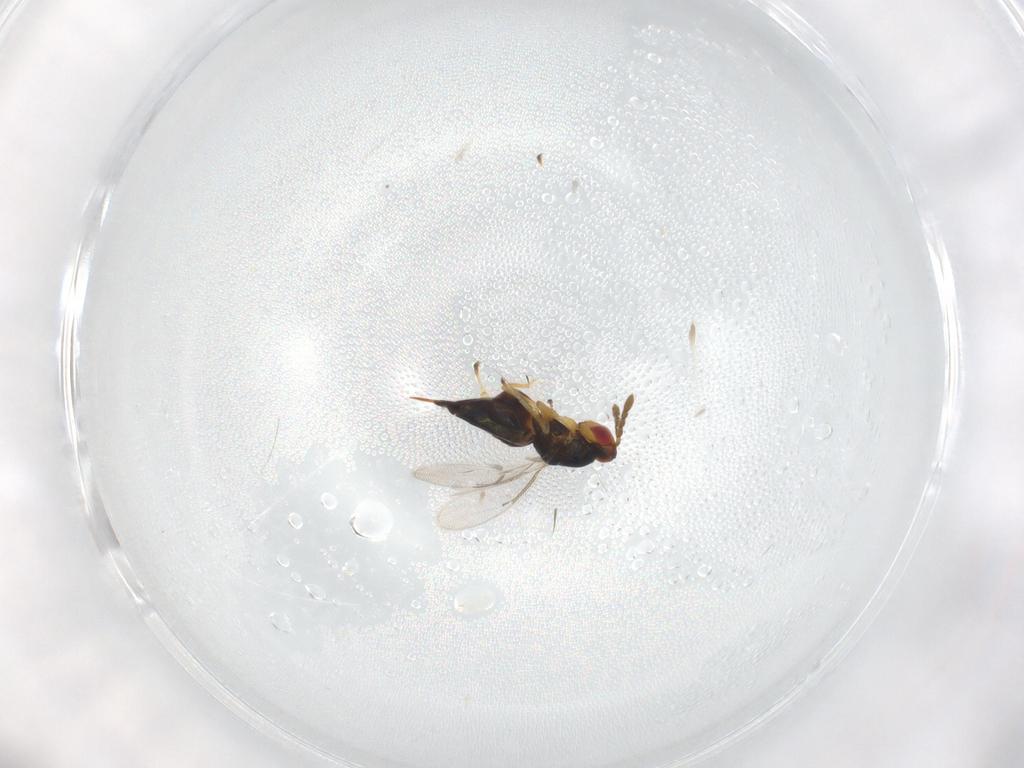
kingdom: Animalia
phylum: Arthropoda
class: Insecta
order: Hymenoptera
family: Eulophidae
